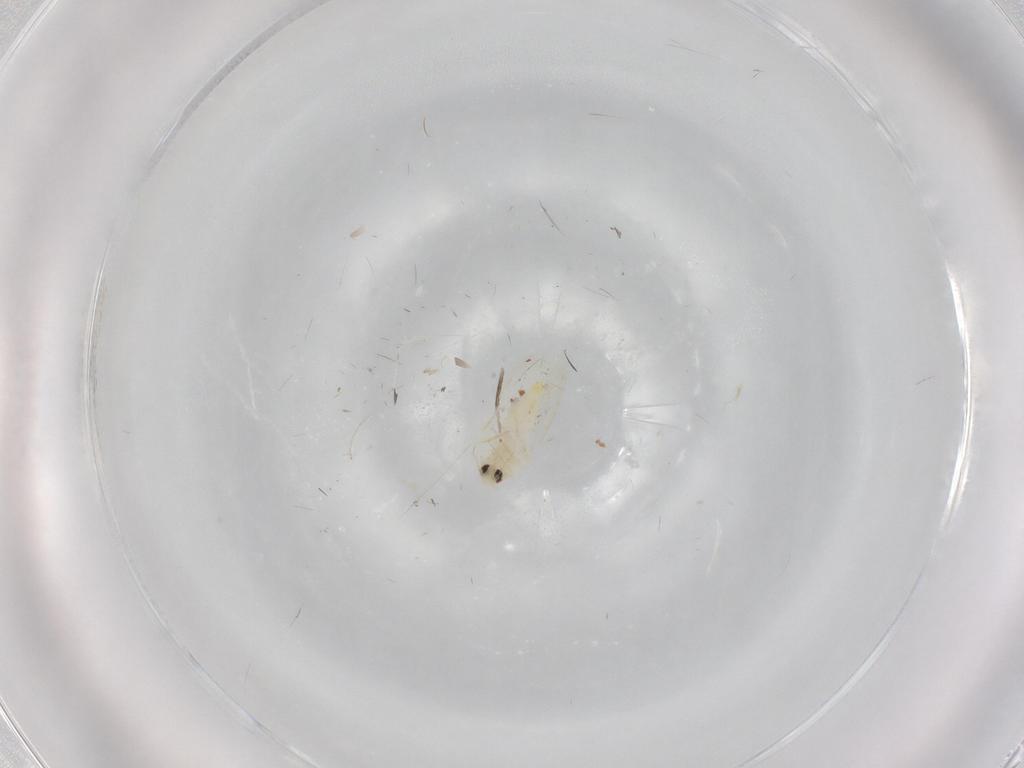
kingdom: Animalia
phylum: Arthropoda
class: Insecta
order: Hemiptera
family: Aleyrodidae
